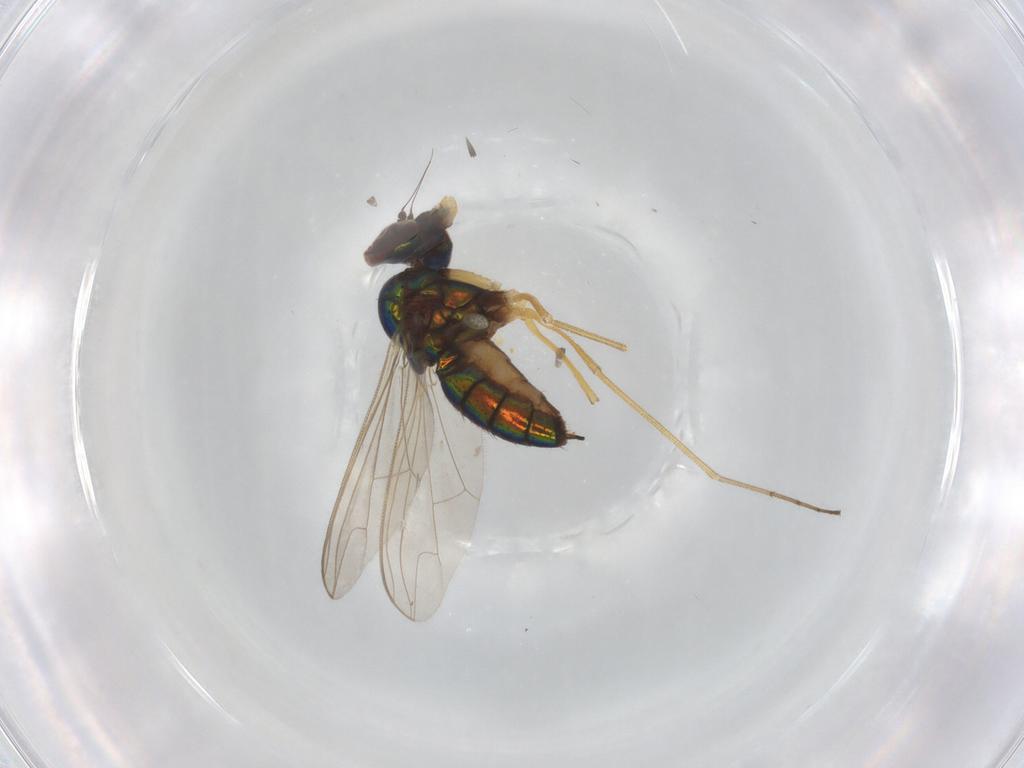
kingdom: Animalia
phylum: Arthropoda
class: Insecta
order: Diptera
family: Dolichopodidae
